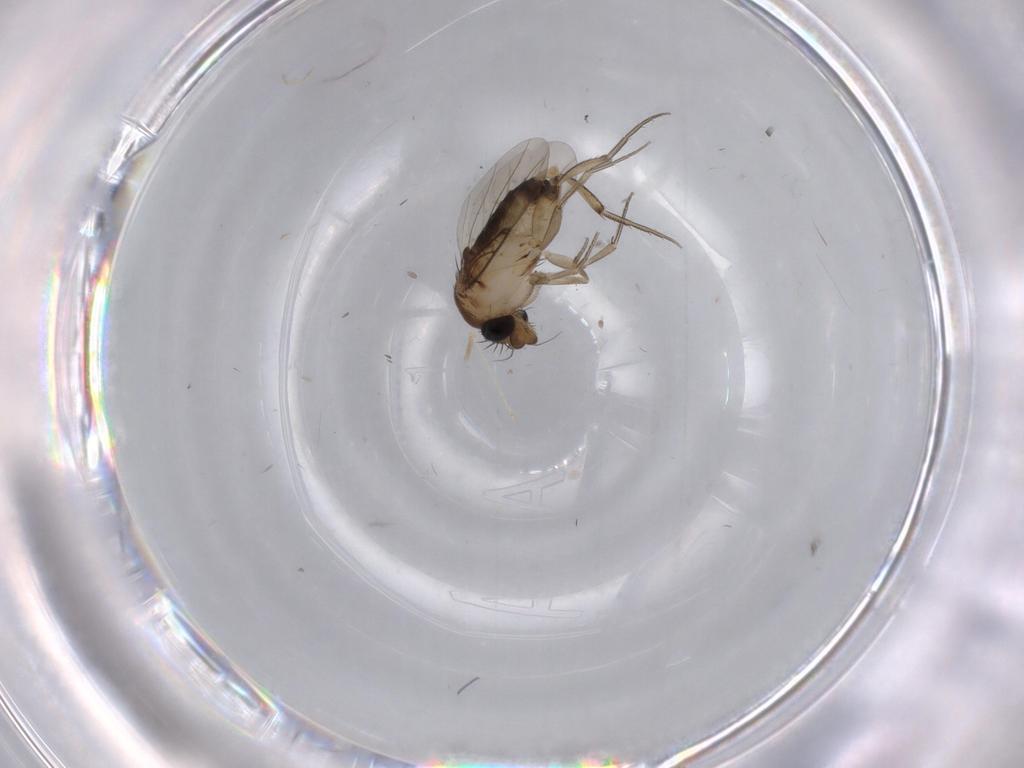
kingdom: Animalia
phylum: Arthropoda
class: Insecta
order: Diptera
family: Phoridae
